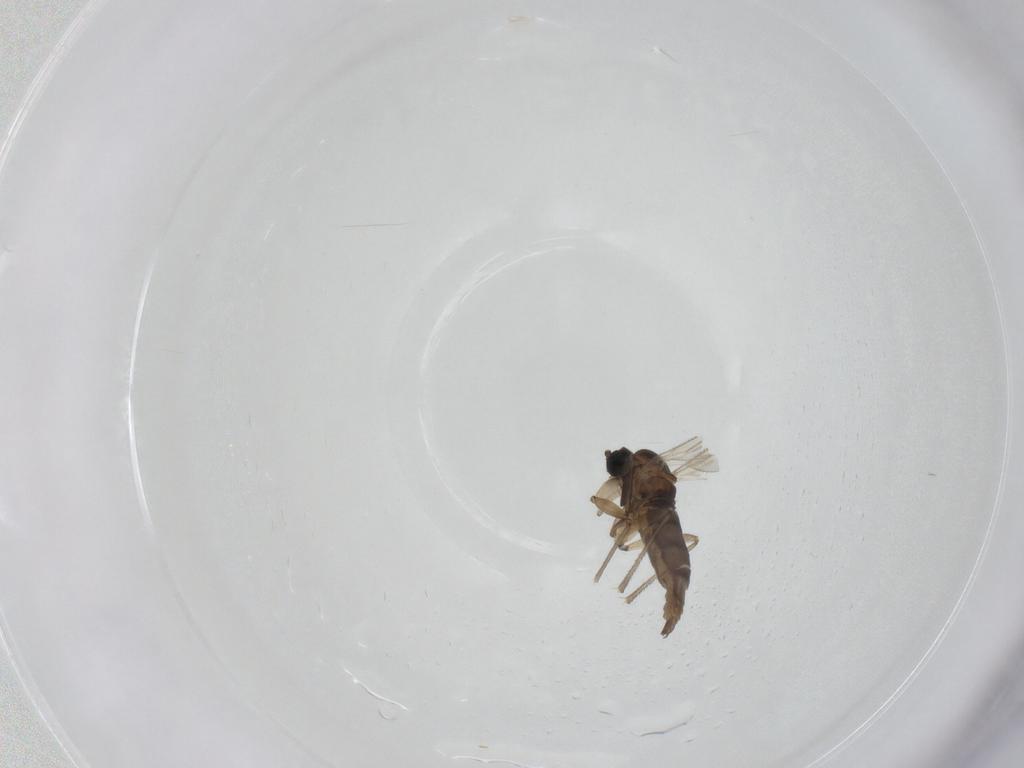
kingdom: Animalia
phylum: Arthropoda
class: Insecta
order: Diptera
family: Sciaridae
